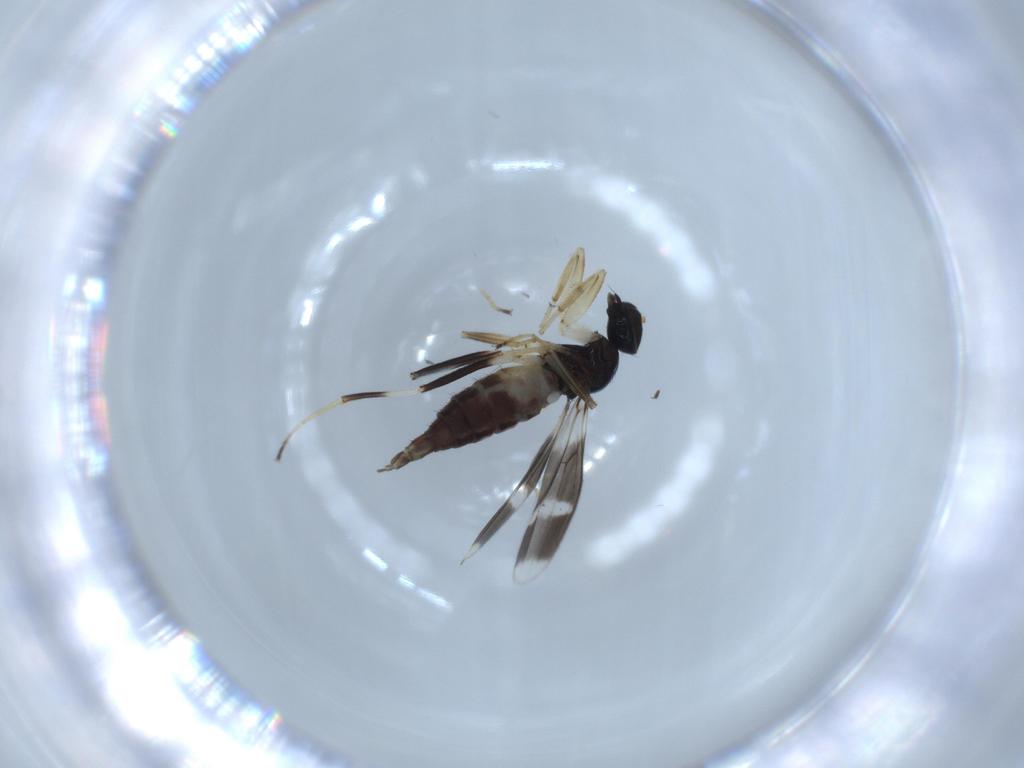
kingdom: Animalia
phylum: Arthropoda
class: Insecta
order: Diptera
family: Hybotidae
